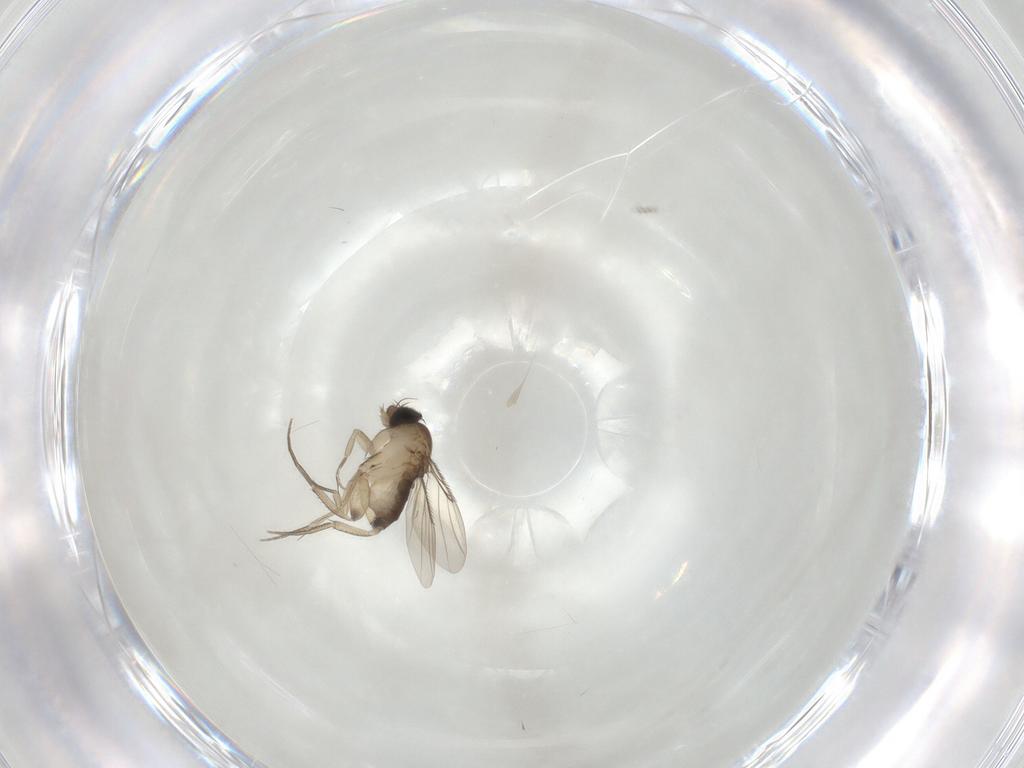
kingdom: Animalia
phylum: Arthropoda
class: Insecta
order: Diptera
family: Phoridae
